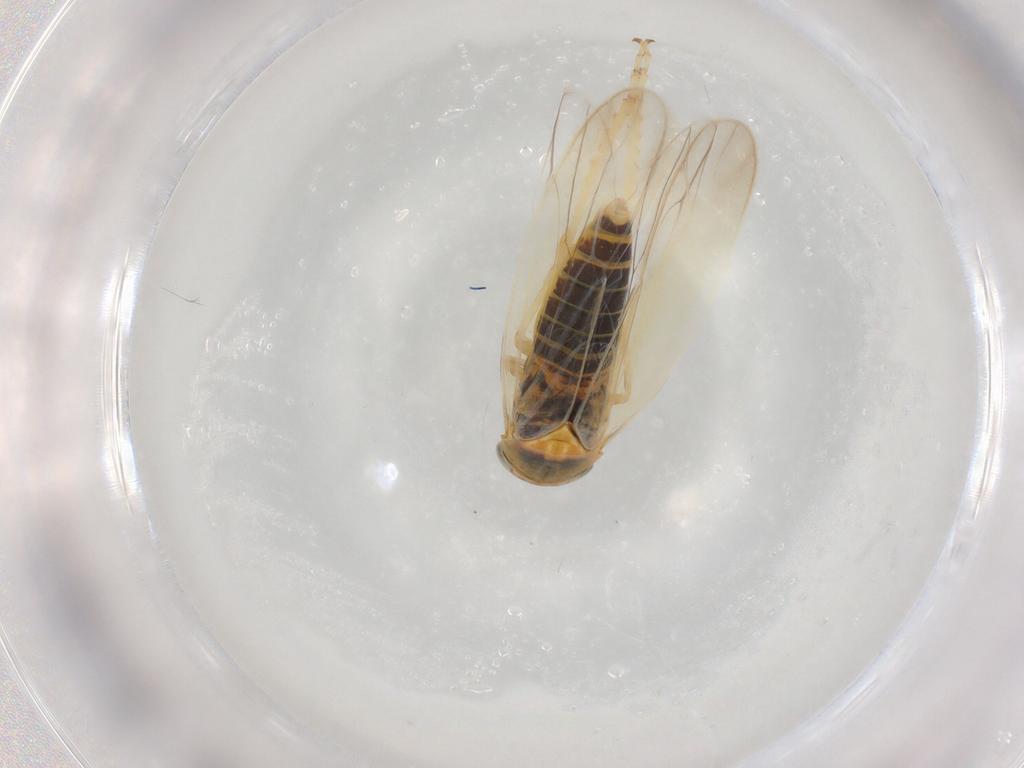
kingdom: Animalia
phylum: Arthropoda
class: Insecta
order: Hemiptera
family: Cicadellidae
